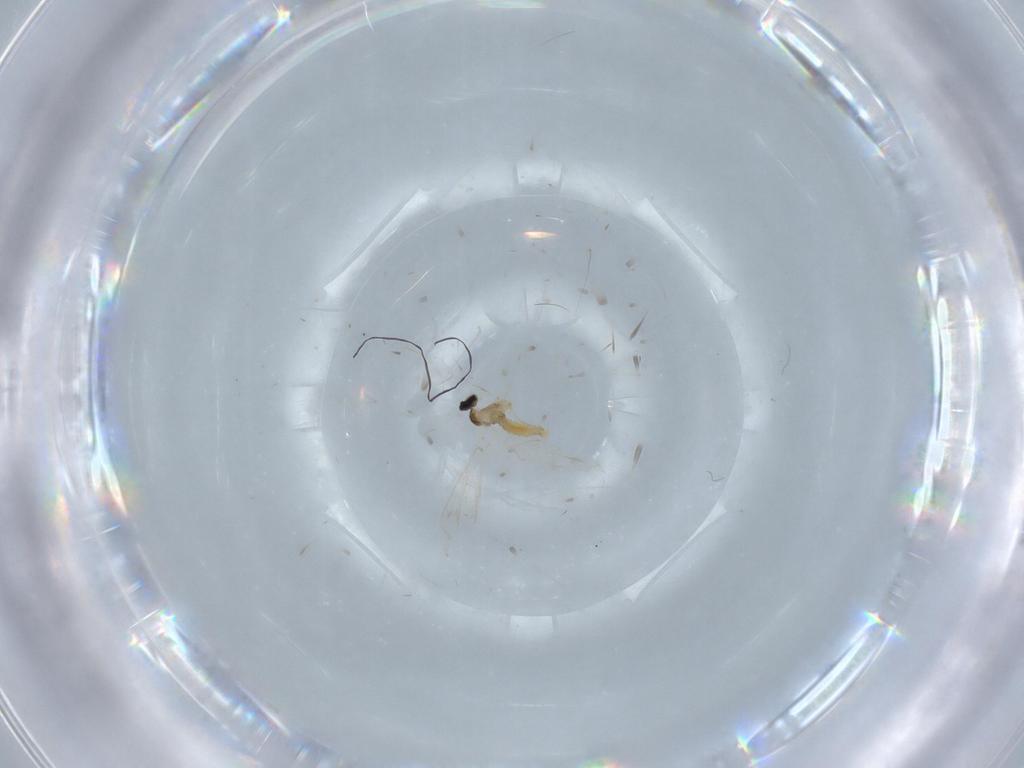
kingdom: Animalia
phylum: Arthropoda
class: Insecta
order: Diptera
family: Cecidomyiidae
